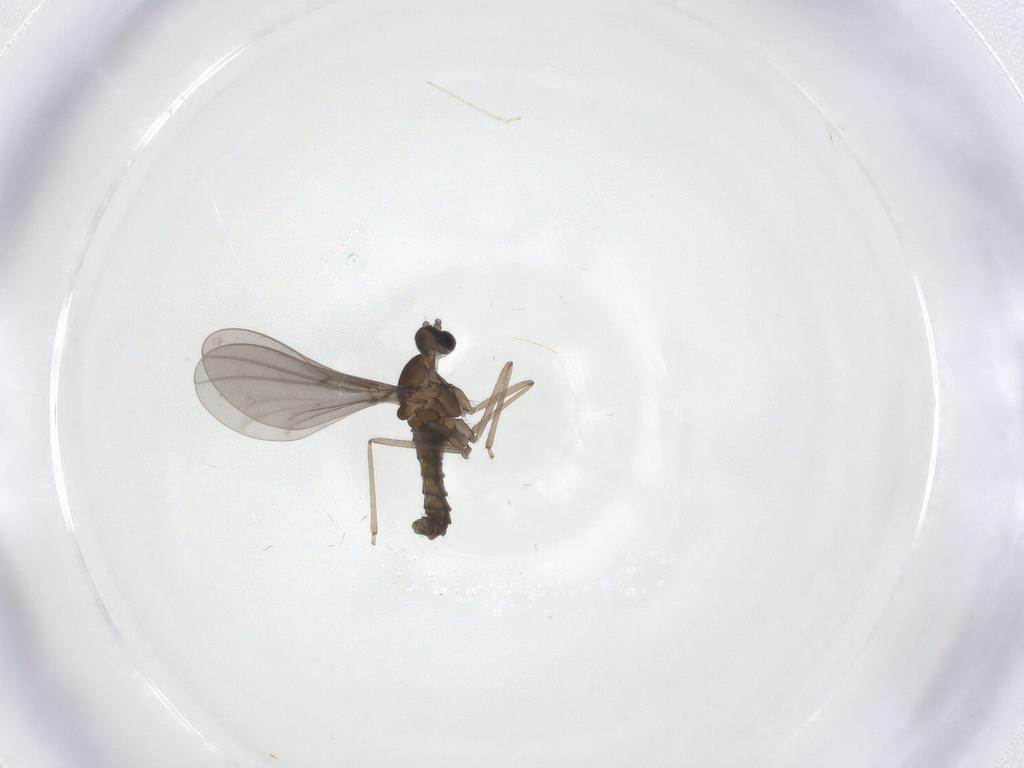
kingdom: Animalia
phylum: Arthropoda
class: Insecta
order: Diptera
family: Cecidomyiidae
